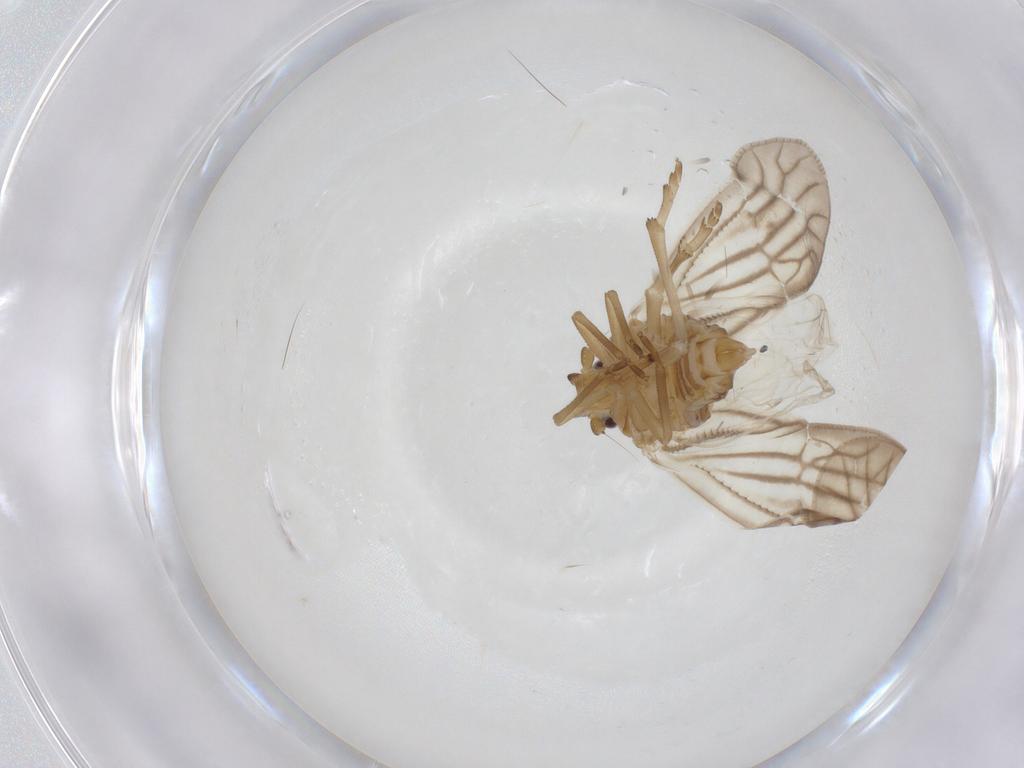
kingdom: Animalia
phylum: Arthropoda
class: Insecta
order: Hemiptera
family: Meenoplidae
